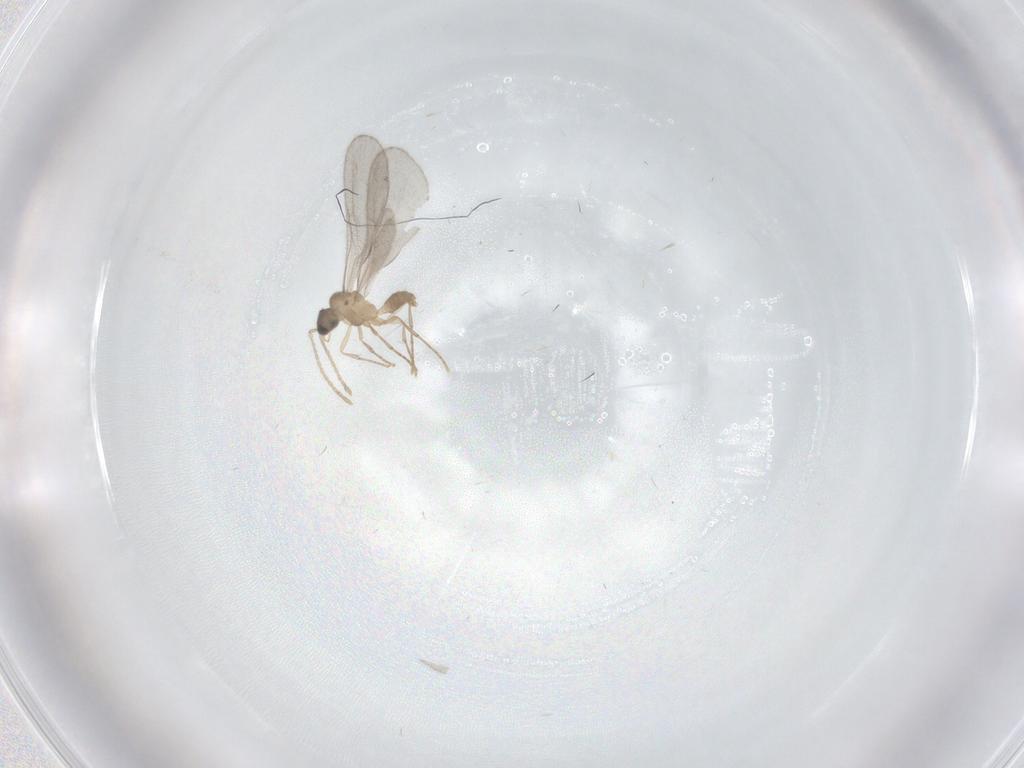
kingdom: Animalia
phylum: Arthropoda
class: Insecta
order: Hymenoptera
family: Formicidae
